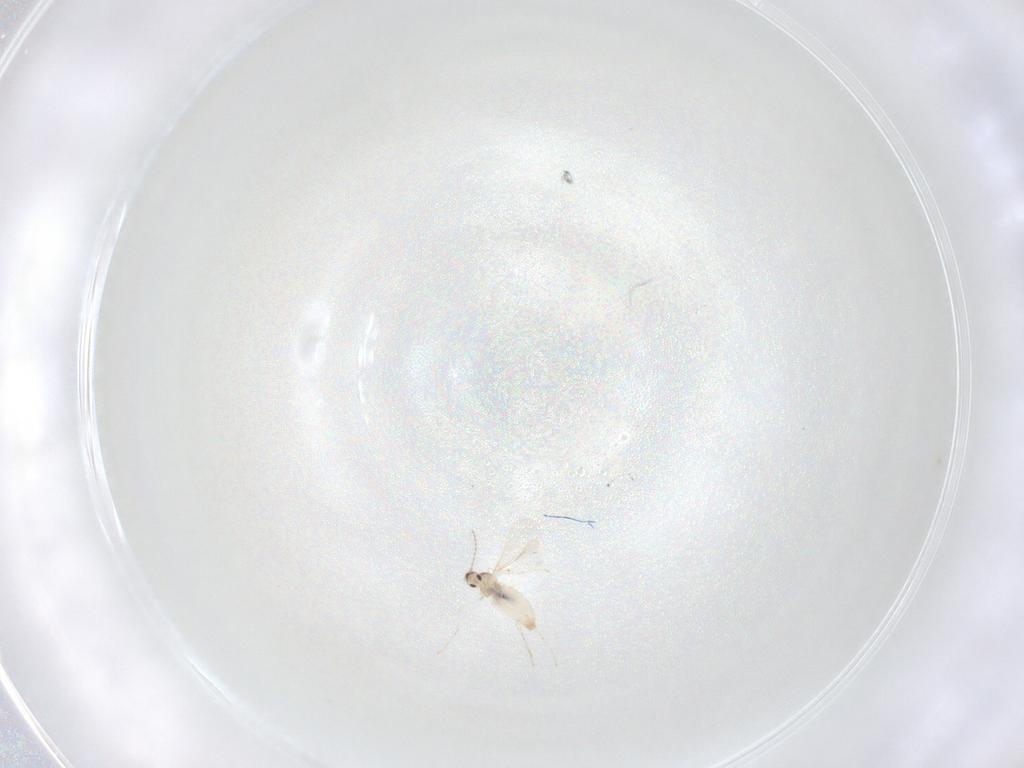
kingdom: Animalia
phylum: Arthropoda
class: Insecta
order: Diptera
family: Cecidomyiidae
